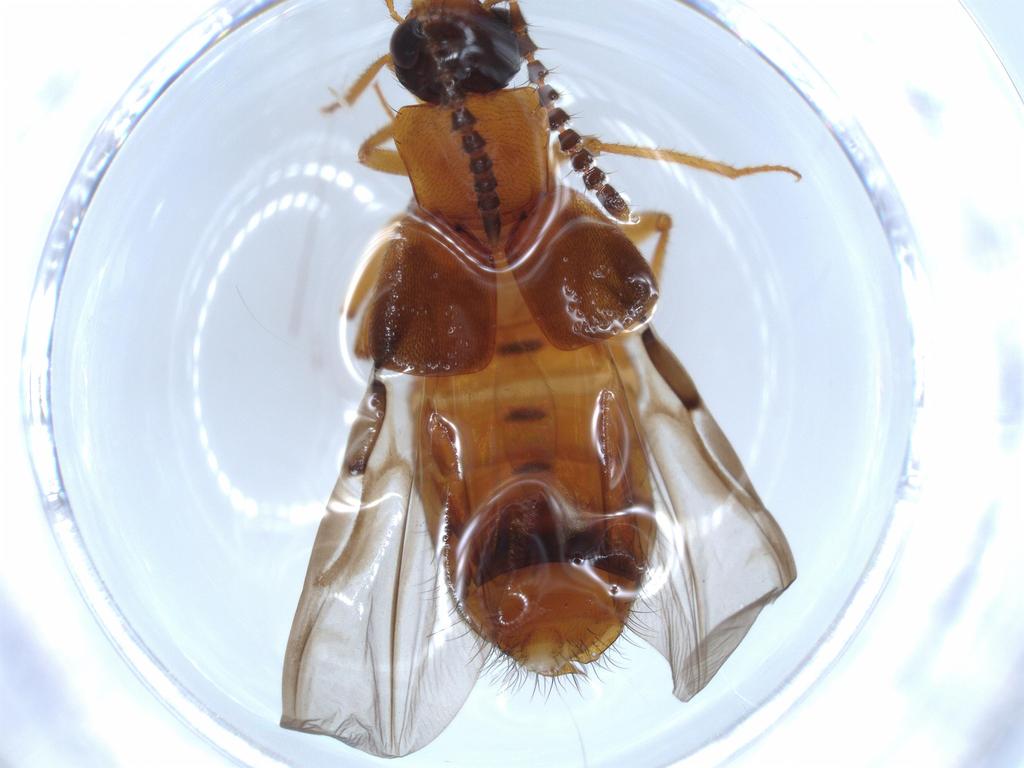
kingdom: Animalia
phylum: Arthropoda
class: Insecta
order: Coleoptera
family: Staphylinidae
